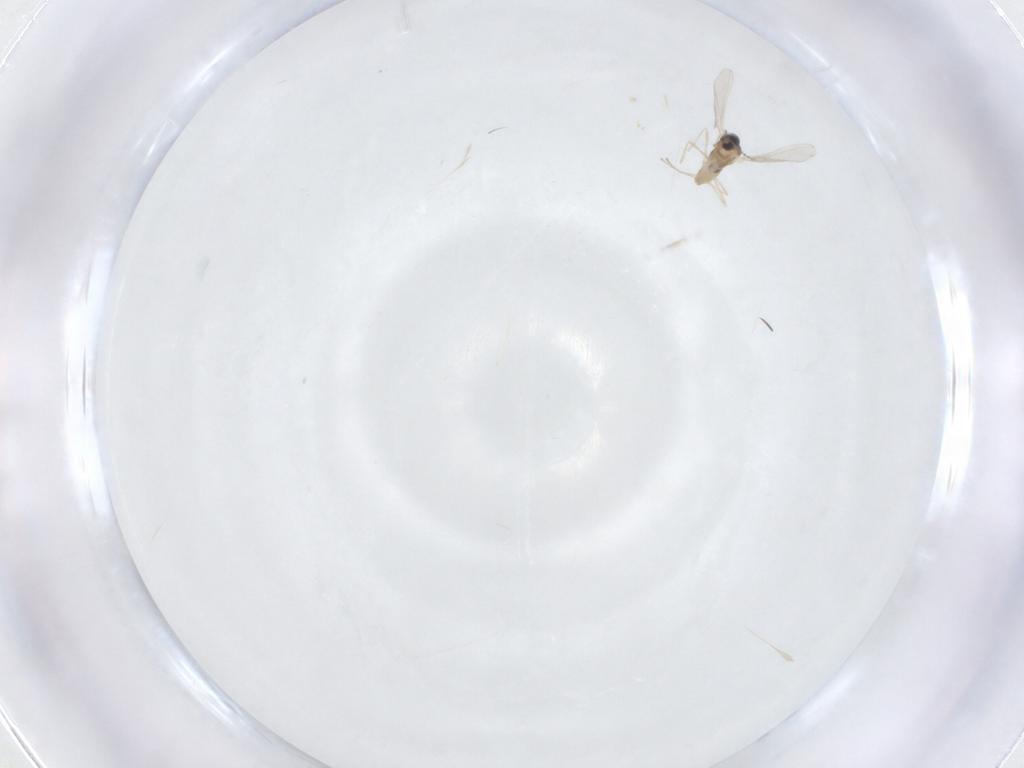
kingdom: Animalia
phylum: Arthropoda
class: Insecta
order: Diptera
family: Cecidomyiidae
